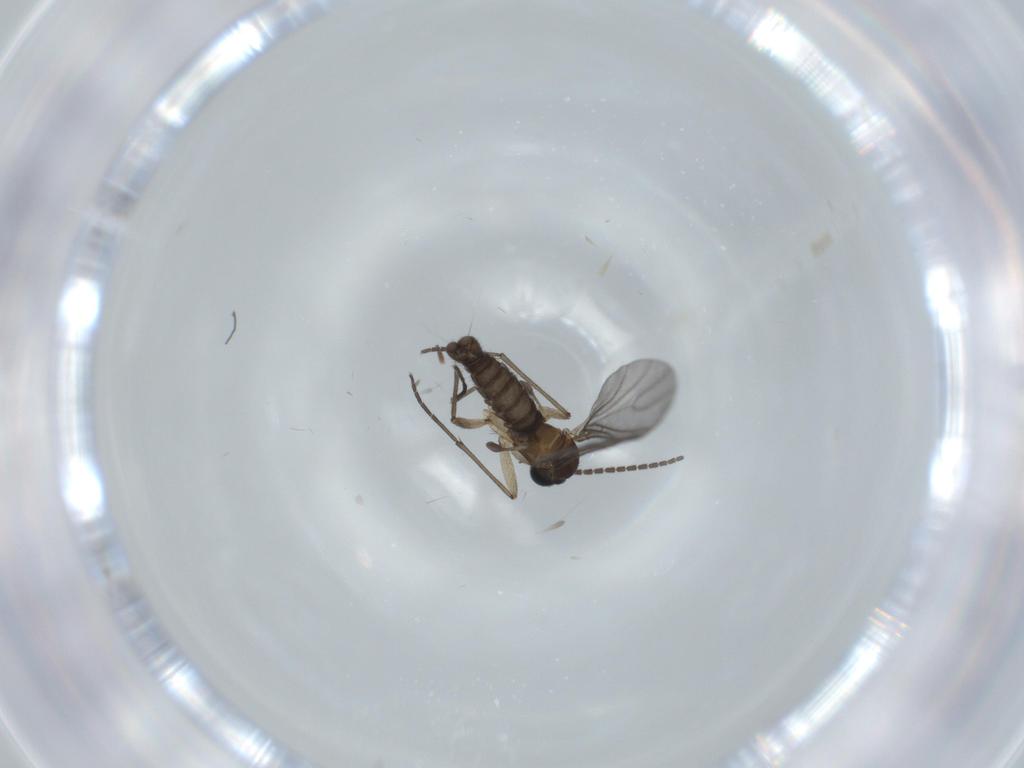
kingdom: Animalia
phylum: Arthropoda
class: Insecta
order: Diptera
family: Sciaridae
